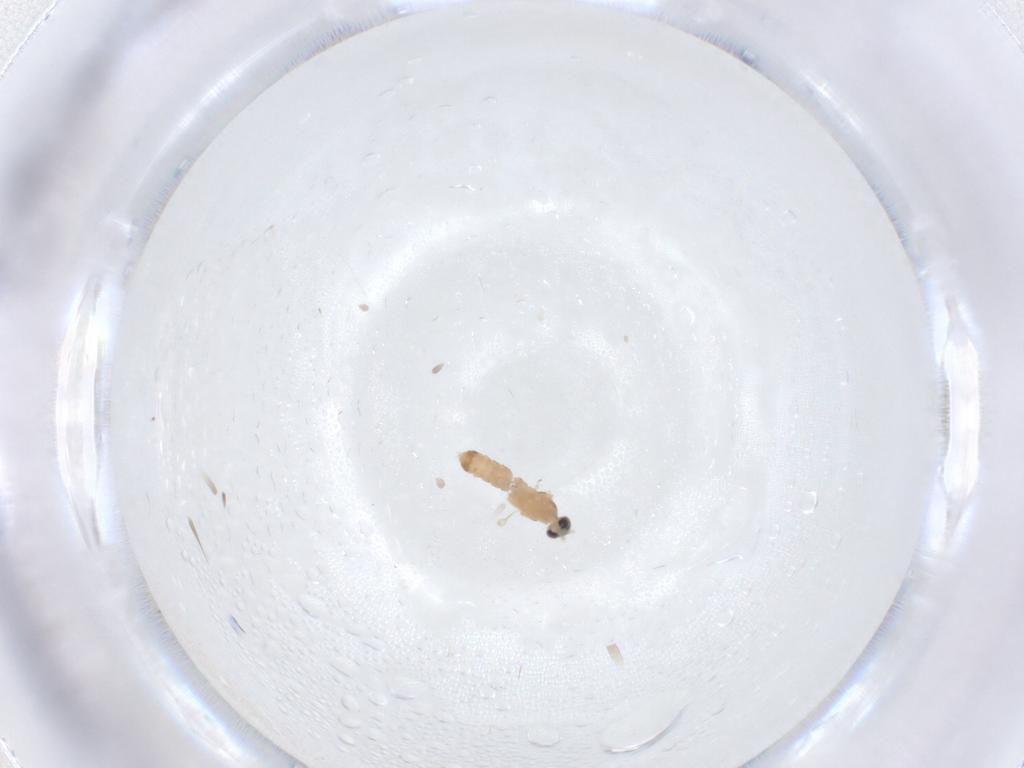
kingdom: Animalia
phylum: Arthropoda
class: Insecta
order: Diptera
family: Cecidomyiidae
